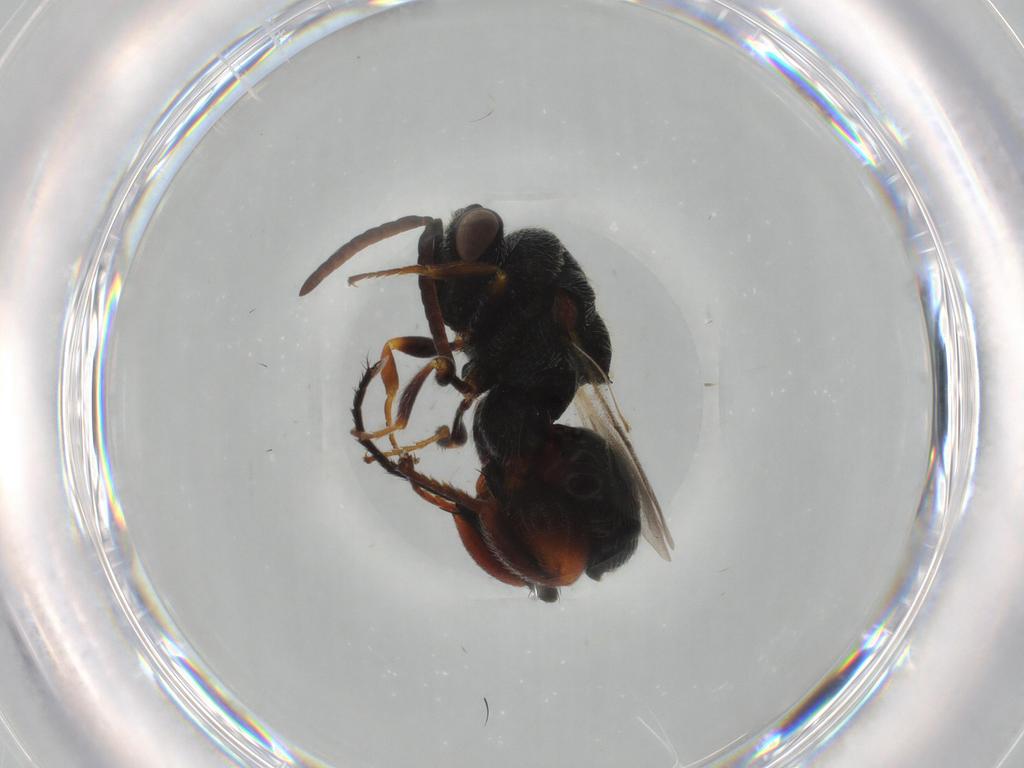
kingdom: Animalia
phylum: Arthropoda
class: Insecta
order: Hymenoptera
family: Chalcididae
